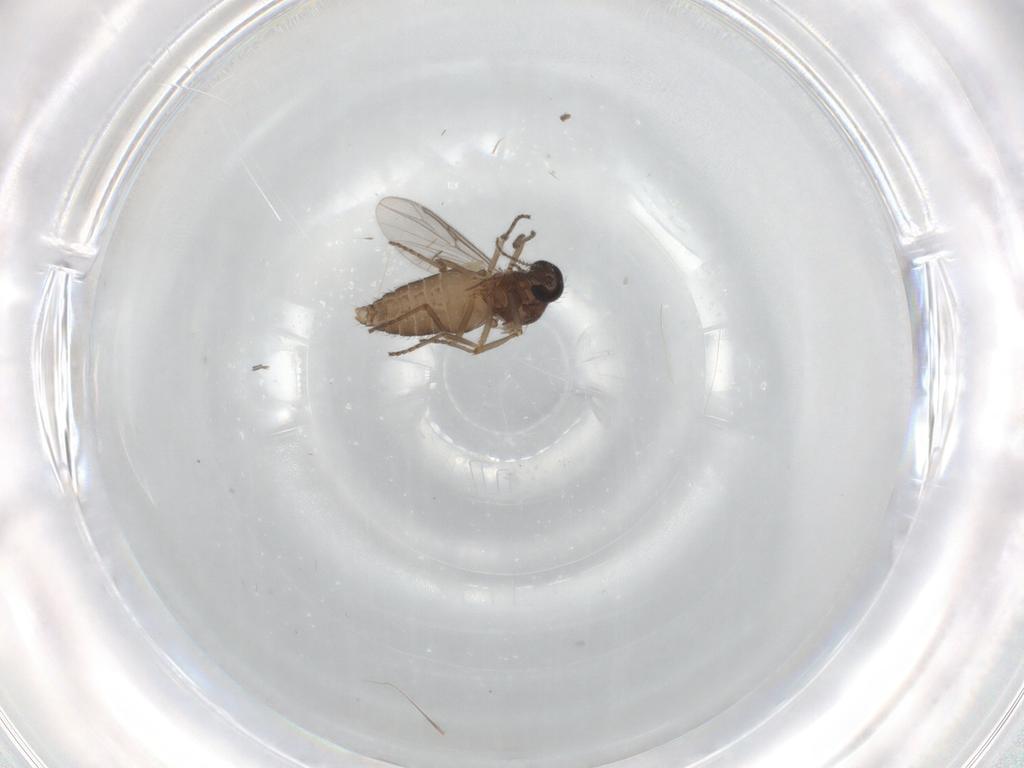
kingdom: Animalia
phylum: Arthropoda
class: Insecta
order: Diptera
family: Ceratopogonidae
